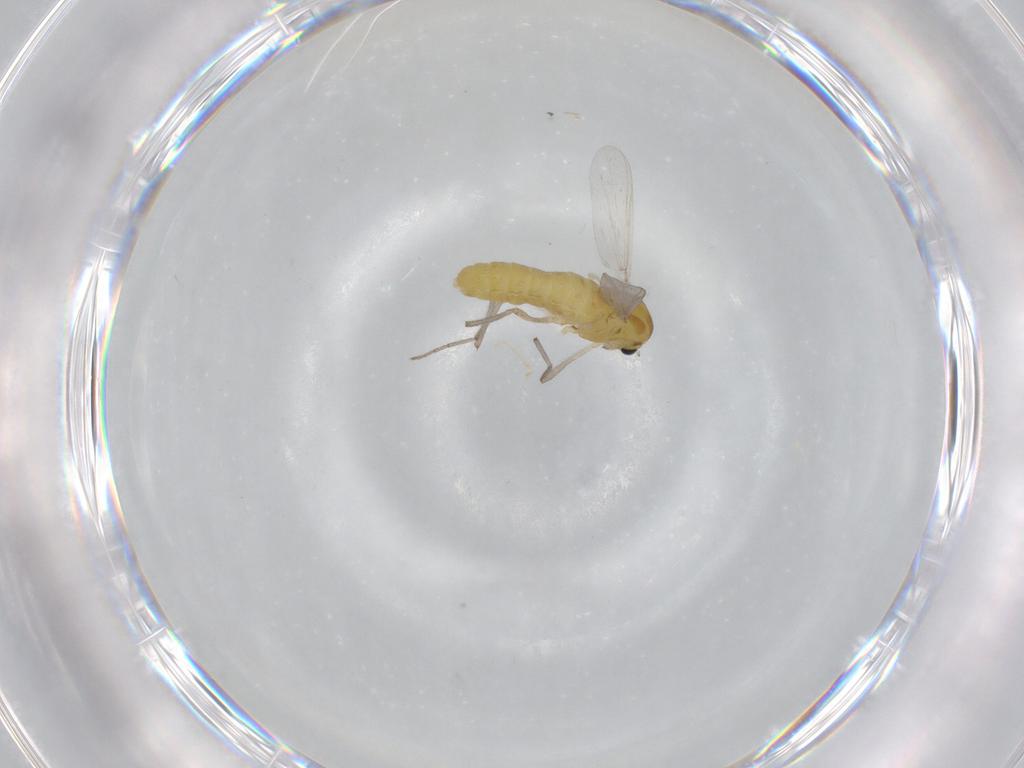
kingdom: Animalia
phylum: Arthropoda
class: Insecta
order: Diptera
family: Chironomidae
